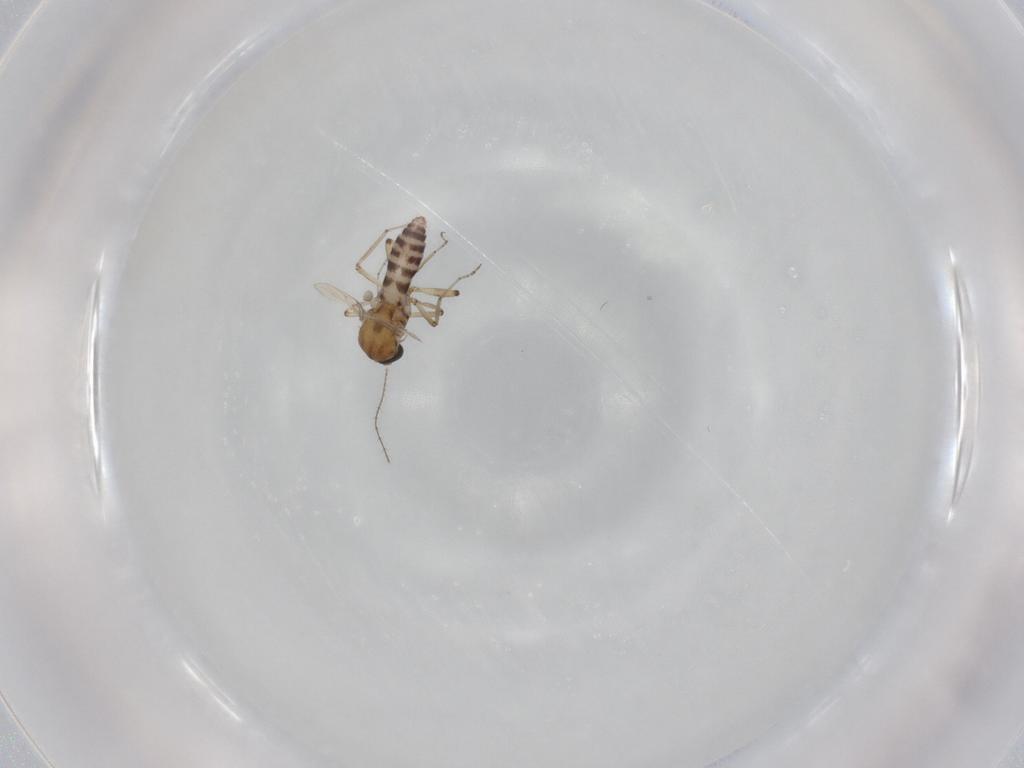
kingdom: Animalia
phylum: Arthropoda
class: Insecta
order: Diptera
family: Ceratopogonidae
